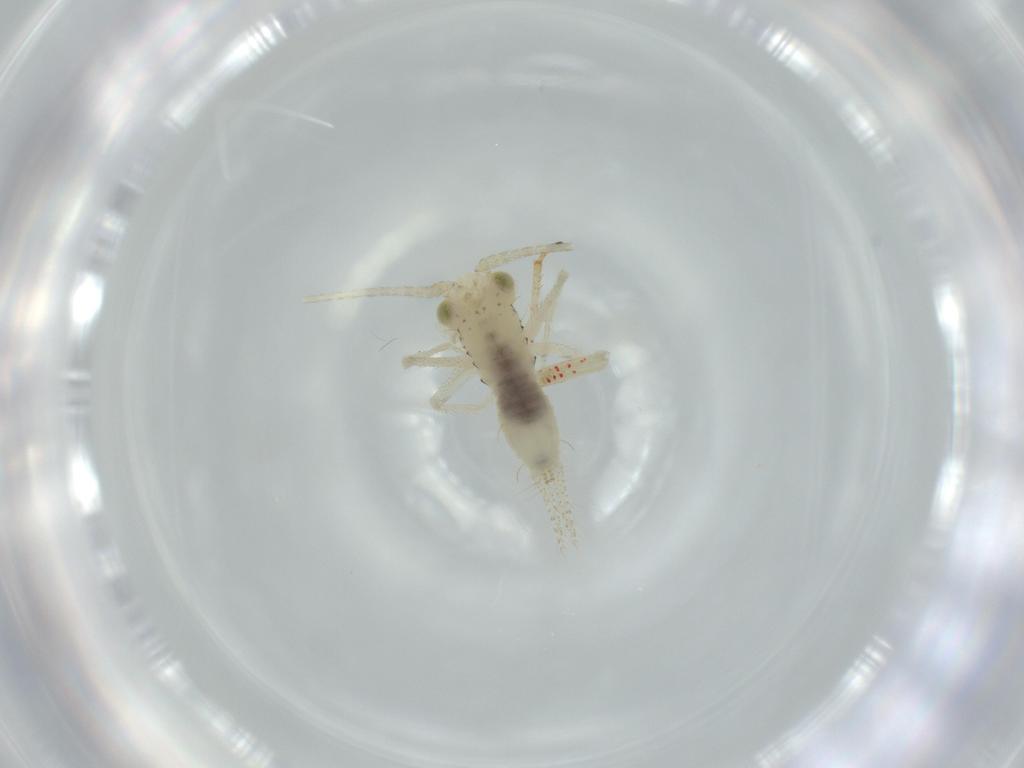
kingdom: Animalia
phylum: Arthropoda
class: Insecta
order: Orthoptera
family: Trigonidiidae
